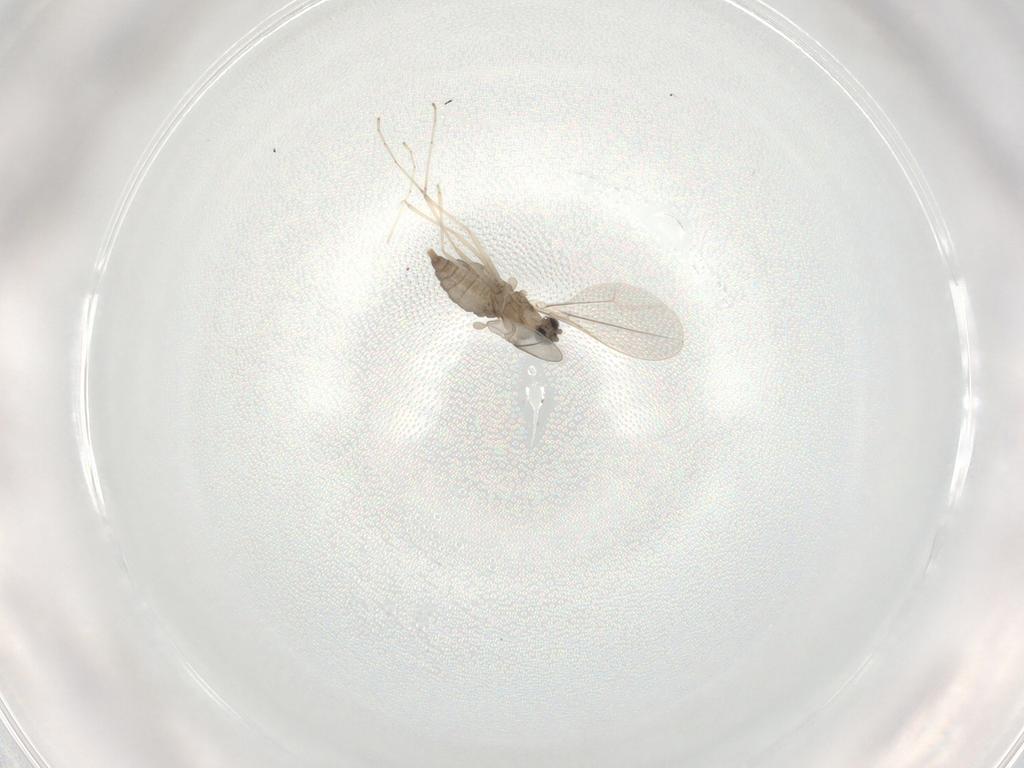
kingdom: Animalia
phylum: Arthropoda
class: Insecta
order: Diptera
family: Cecidomyiidae
